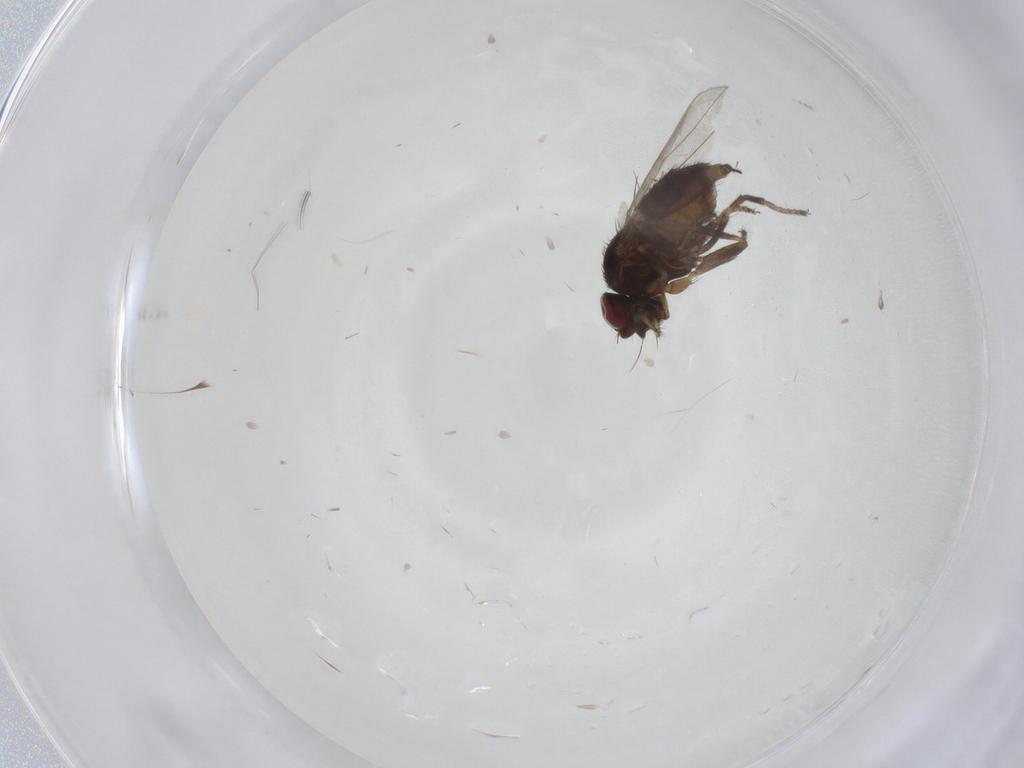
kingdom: Animalia
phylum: Arthropoda
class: Insecta
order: Diptera
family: Milichiidae
